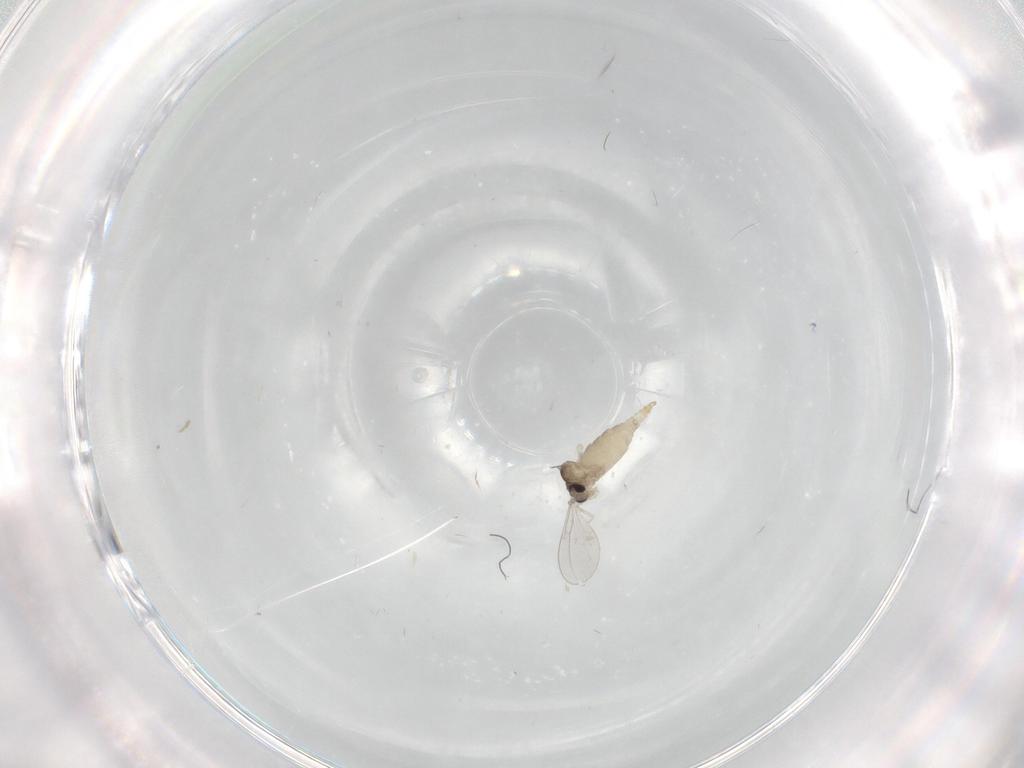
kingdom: Animalia
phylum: Arthropoda
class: Insecta
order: Diptera
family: Cecidomyiidae
